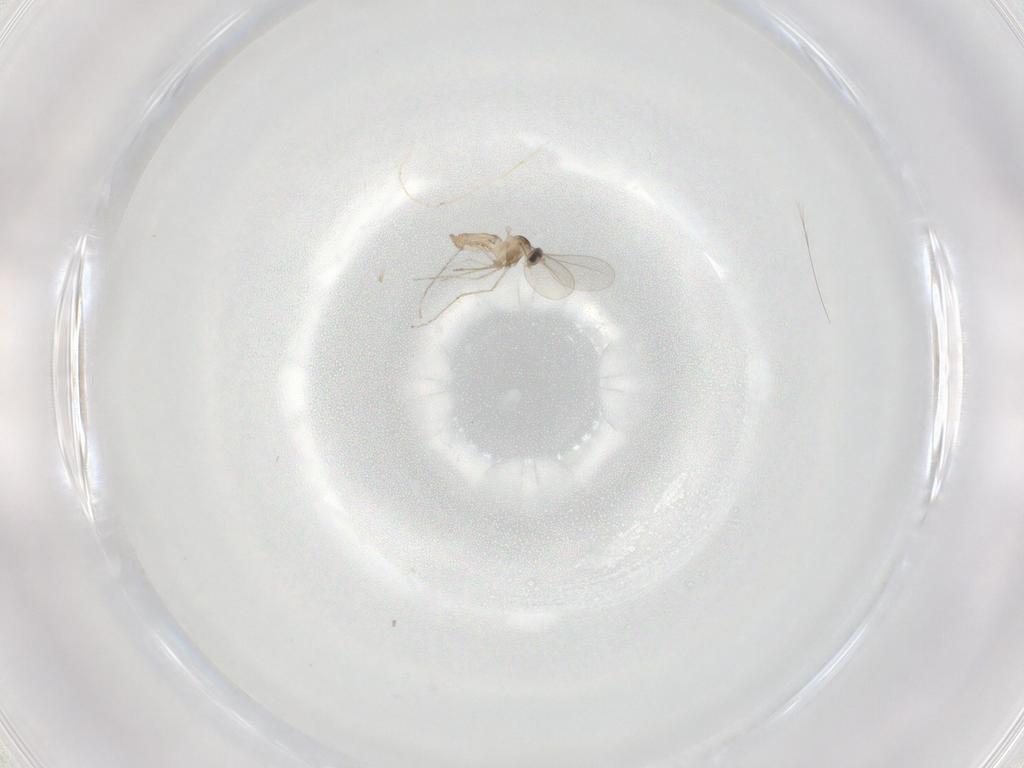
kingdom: Animalia
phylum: Arthropoda
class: Insecta
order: Diptera
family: Cecidomyiidae
